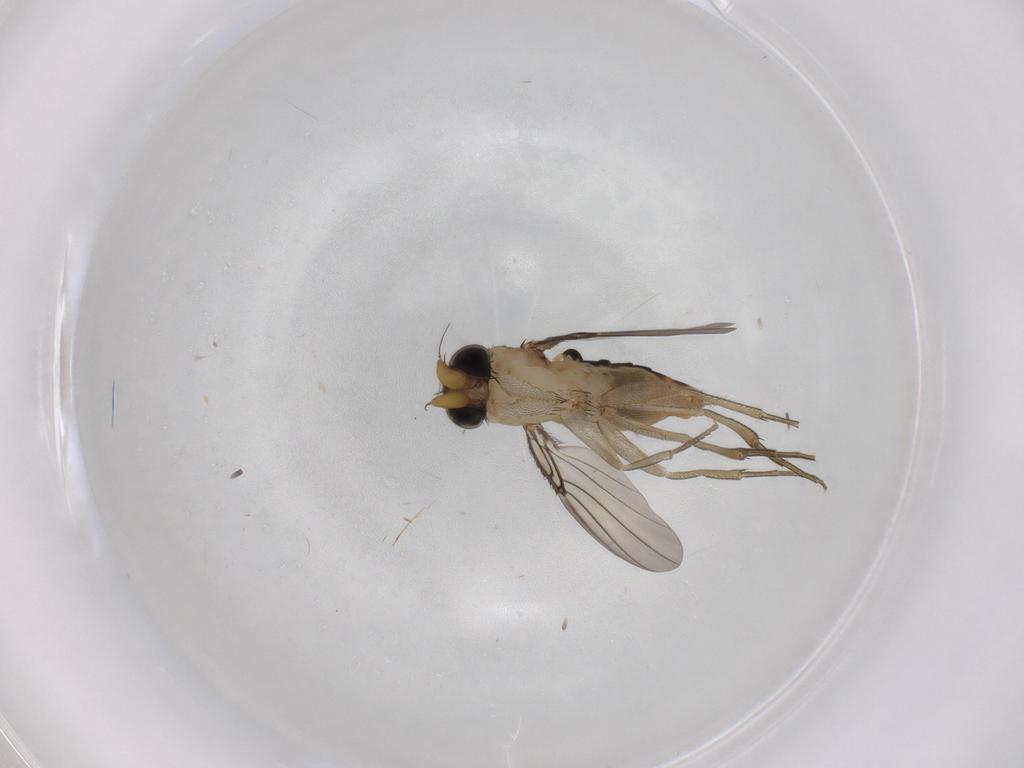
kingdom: Animalia
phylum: Arthropoda
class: Insecta
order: Diptera
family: Phoridae
